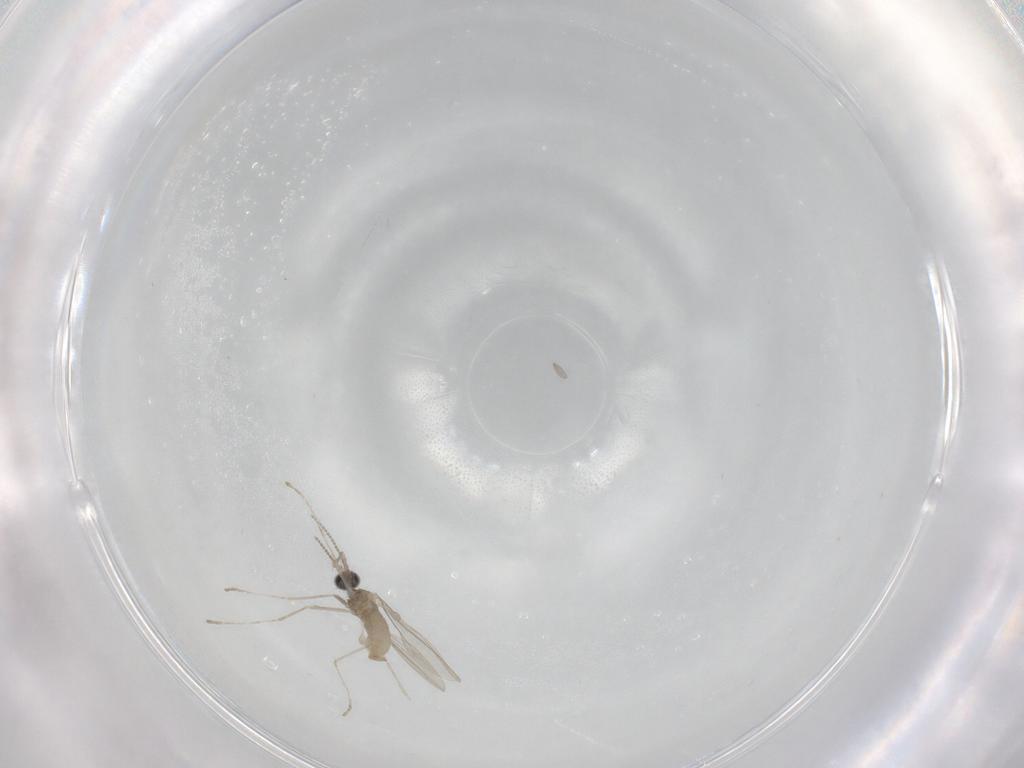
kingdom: Animalia
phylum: Arthropoda
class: Insecta
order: Diptera
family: Cecidomyiidae
